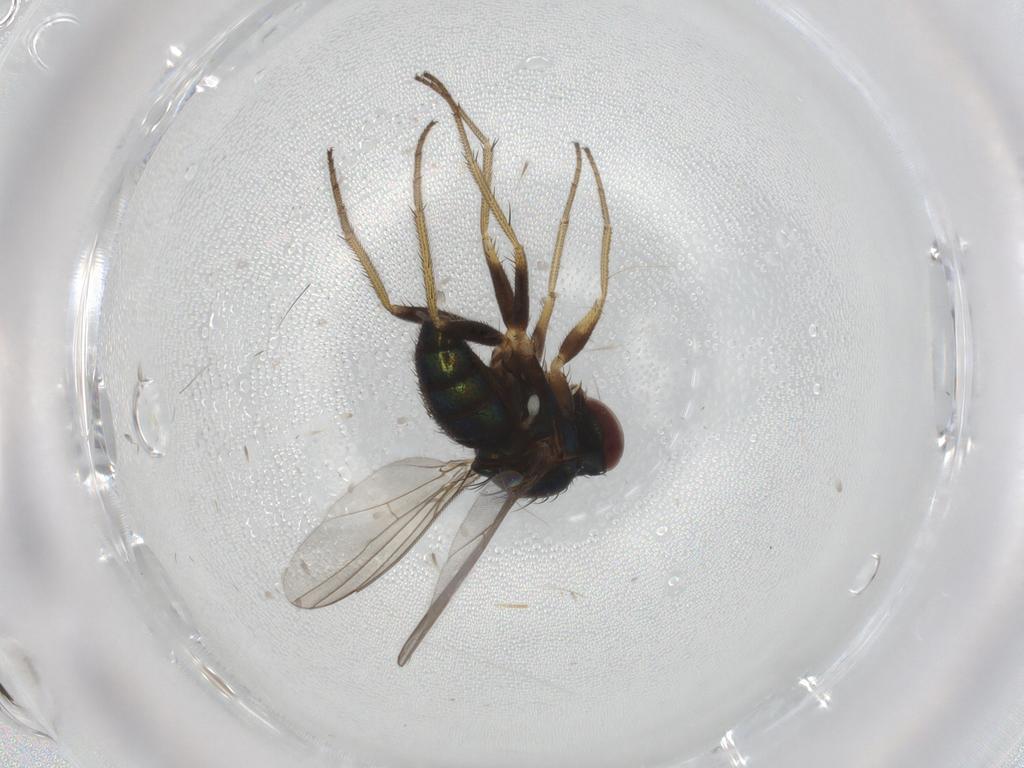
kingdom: Animalia
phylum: Arthropoda
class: Insecta
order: Diptera
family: Dolichopodidae
